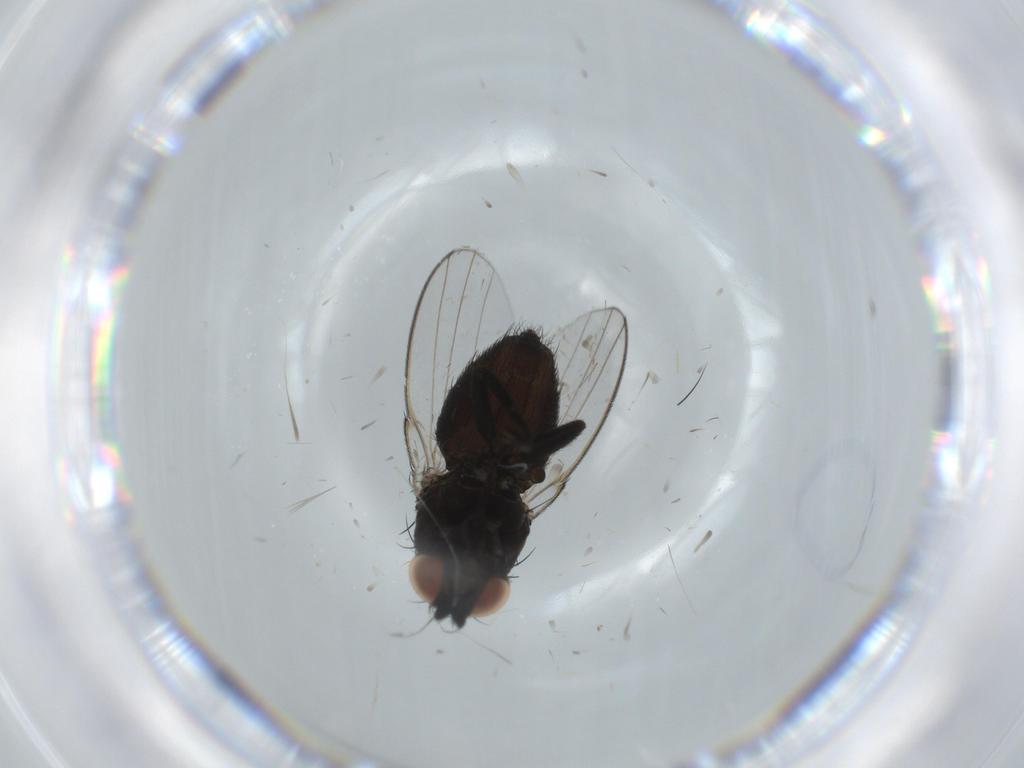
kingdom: Animalia
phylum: Arthropoda
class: Insecta
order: Diptera
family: Milichiidae
